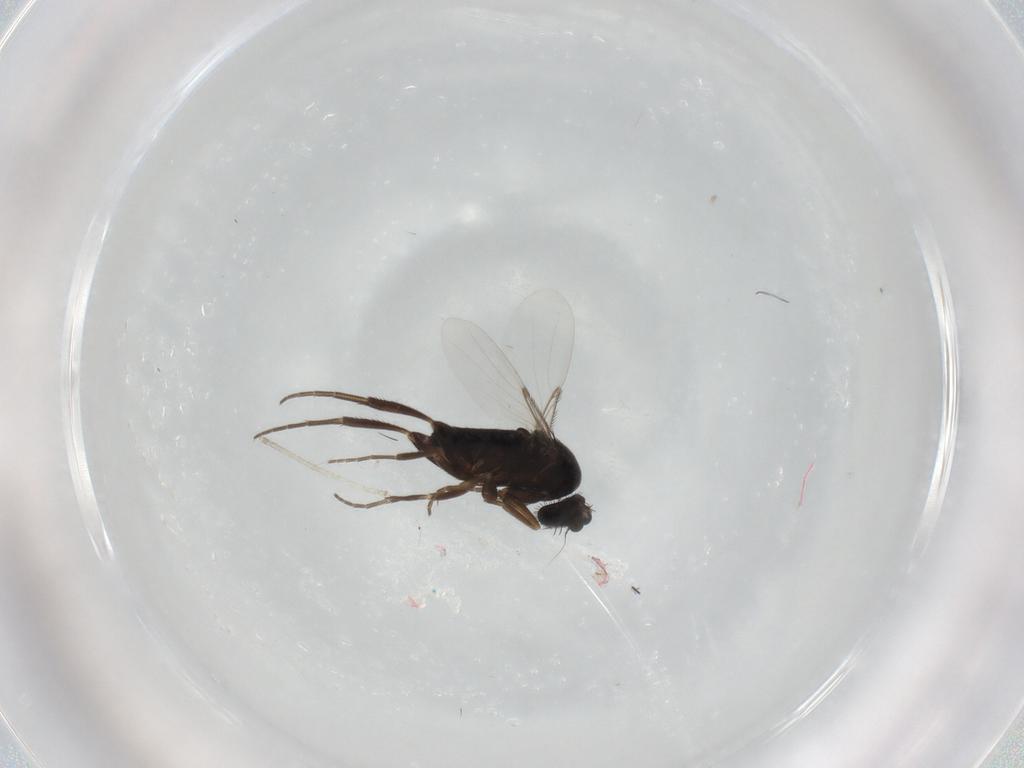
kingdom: Animalia
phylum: Arthropoda
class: Insecta
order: Diptera
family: Phoridae
